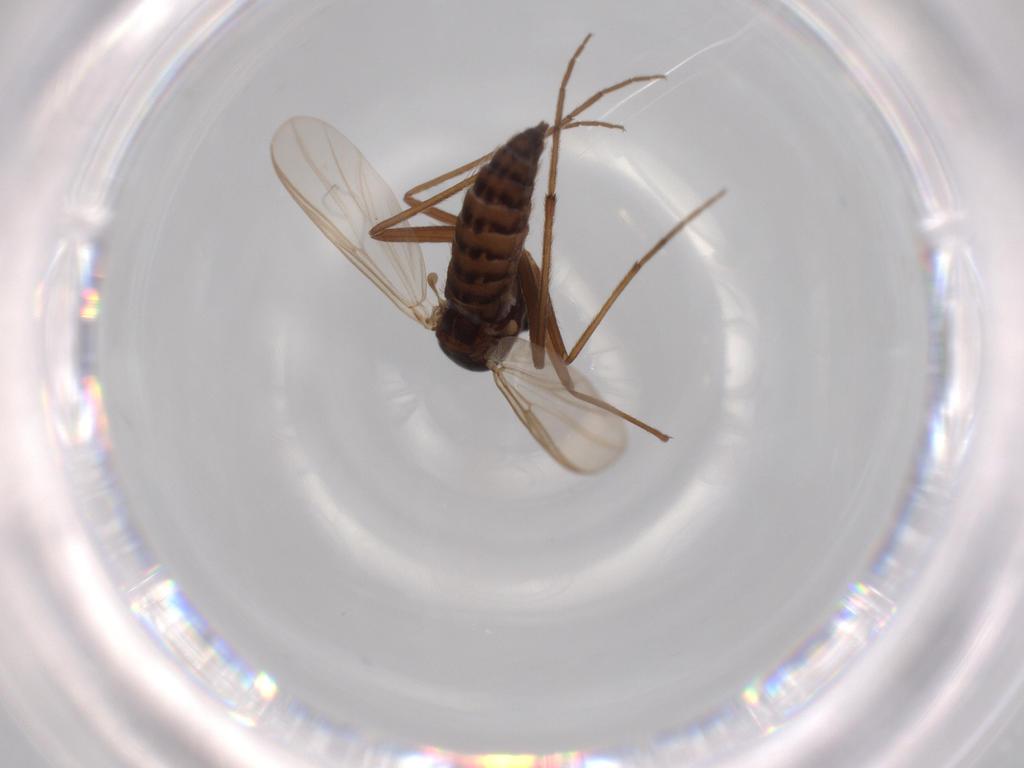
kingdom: Animalia
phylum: Arthropoda
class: Insecta
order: Diptera
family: Chironomidae
